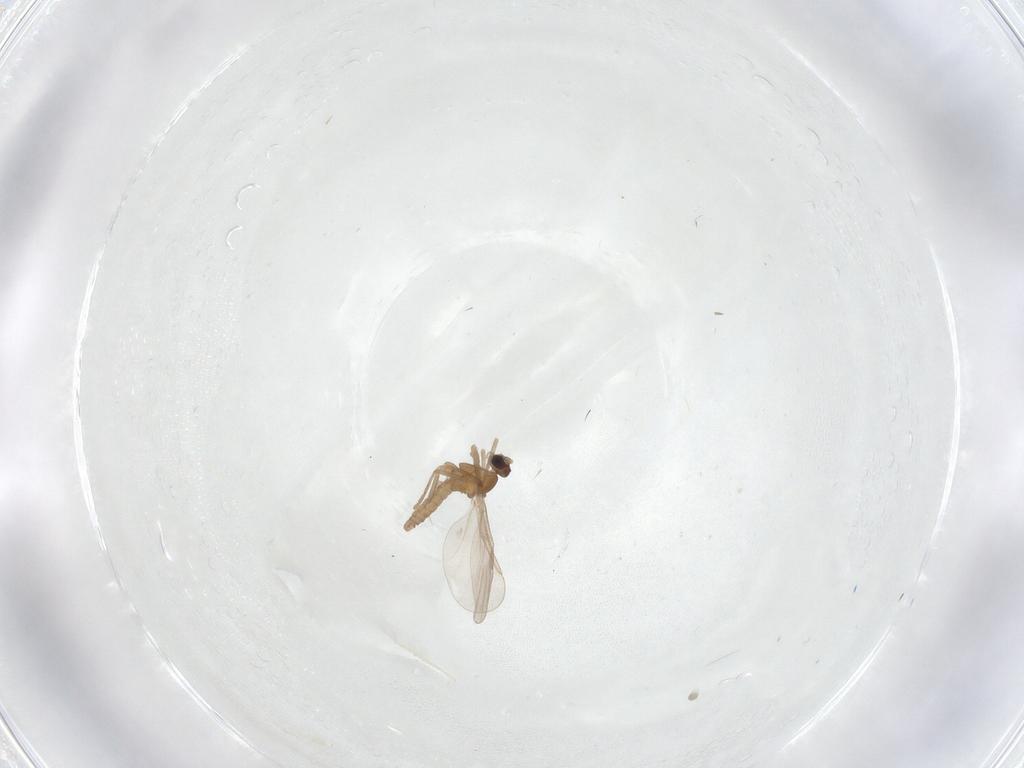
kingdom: Animalia
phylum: Arthropoda
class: Insecta
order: Diptera
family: Cecidomyiidae
